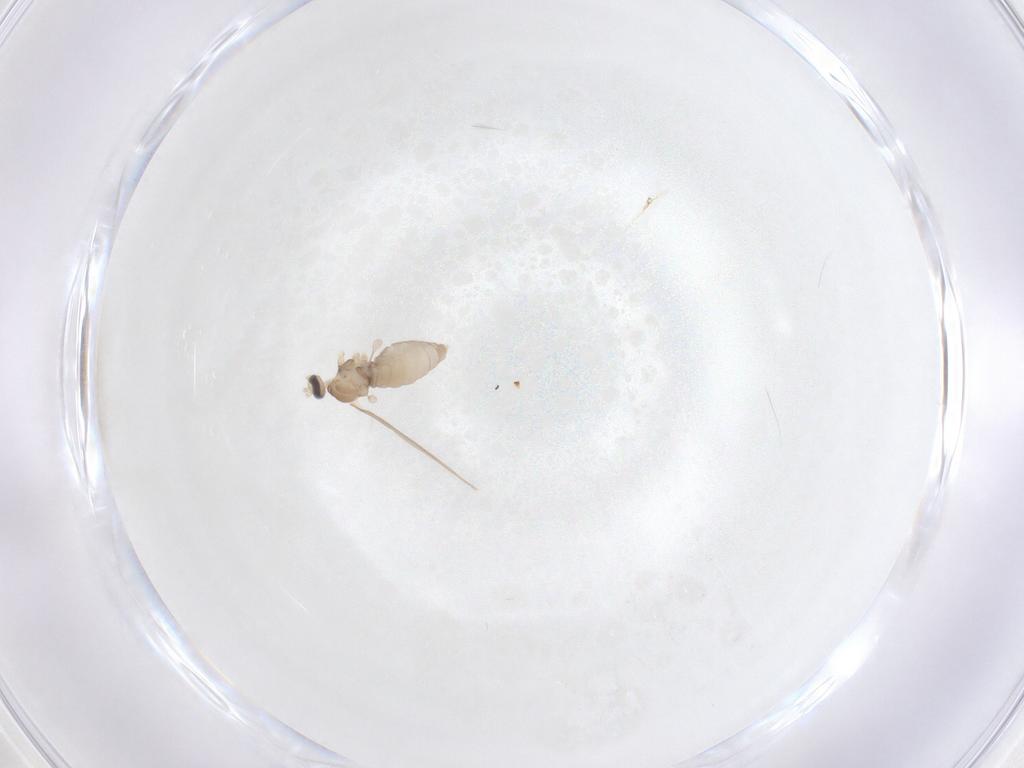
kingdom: Animalia
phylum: Arthropoda
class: Insecta
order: Diptera
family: Cecidomyiidae
